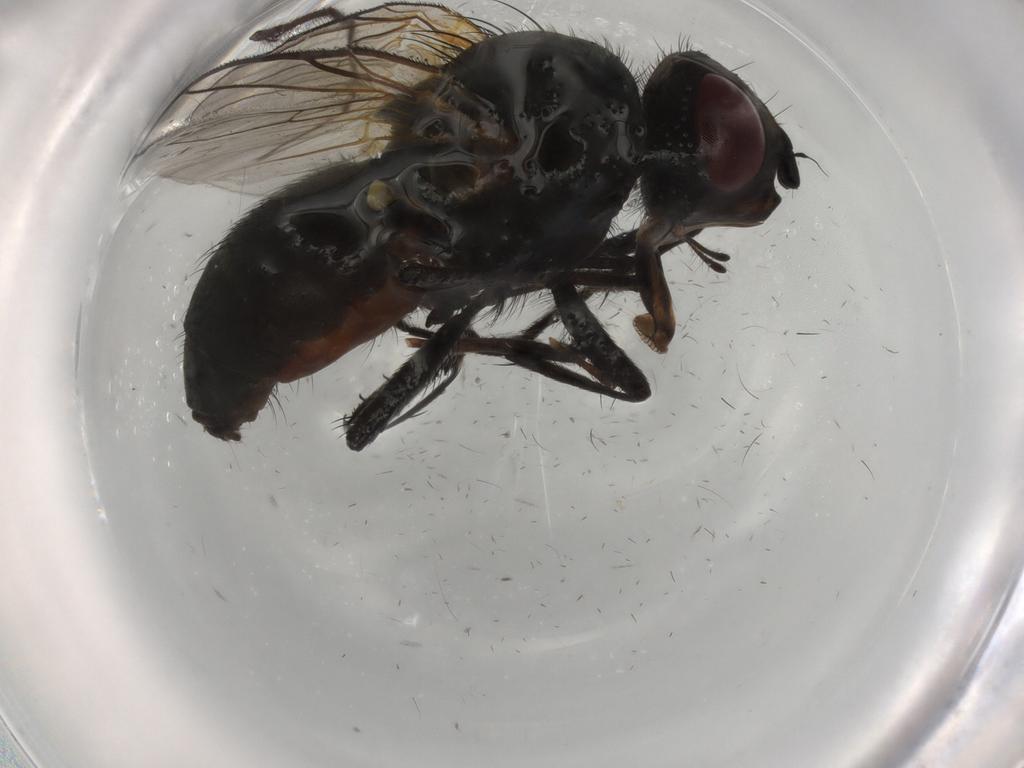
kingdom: Animalia
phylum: Arthropoda
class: Insecta
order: Diptera
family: Anthomyiidae
